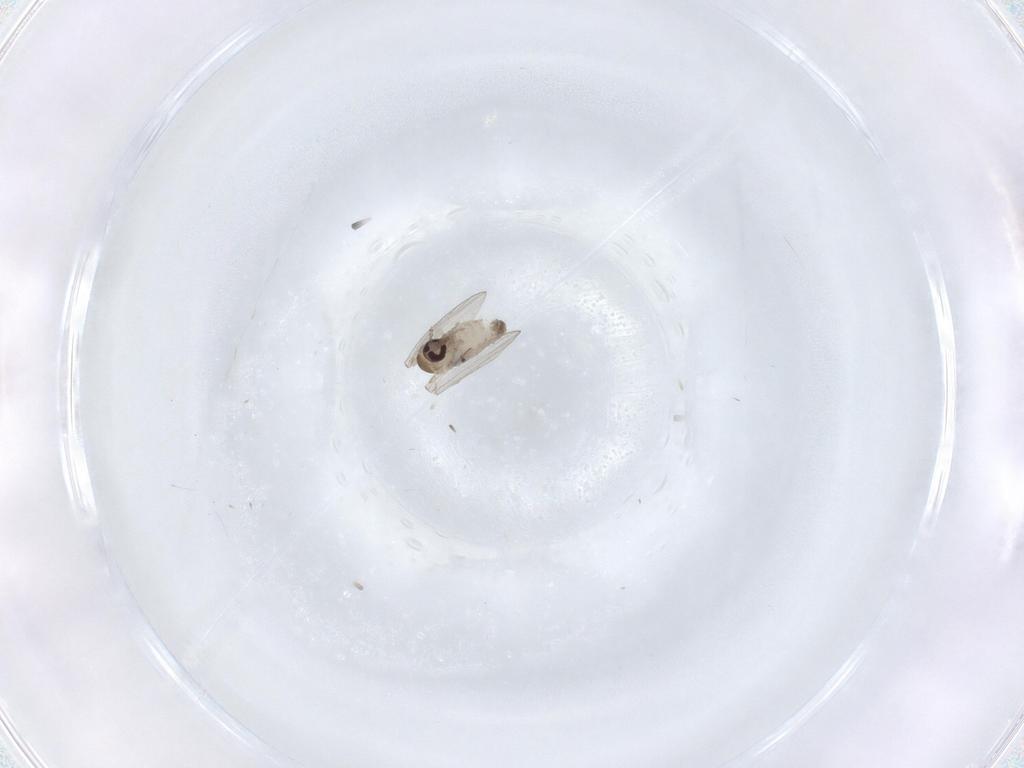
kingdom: Animalia
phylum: Arthropoda
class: Insecta
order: Diptera
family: Psychodidae
